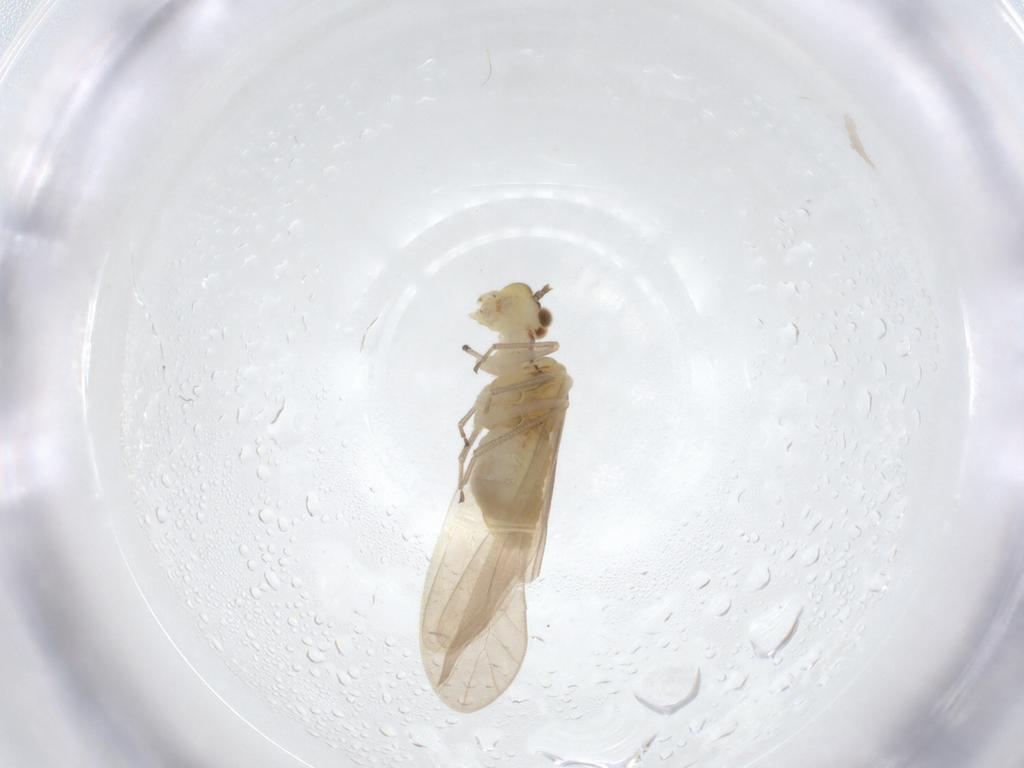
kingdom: Animalia
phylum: Arthropoda
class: Insecta
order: Psocodea
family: Caeciliusidae
